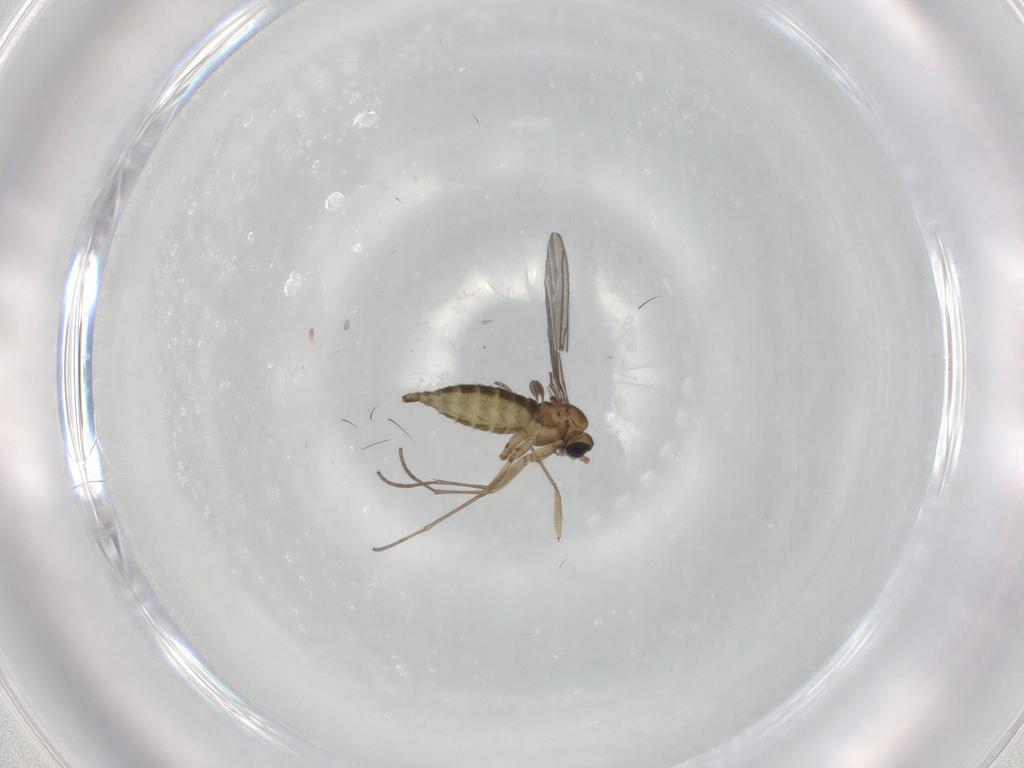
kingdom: Animalia
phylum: Arthropoda
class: Insecta
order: Diptera
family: Sciaridae
